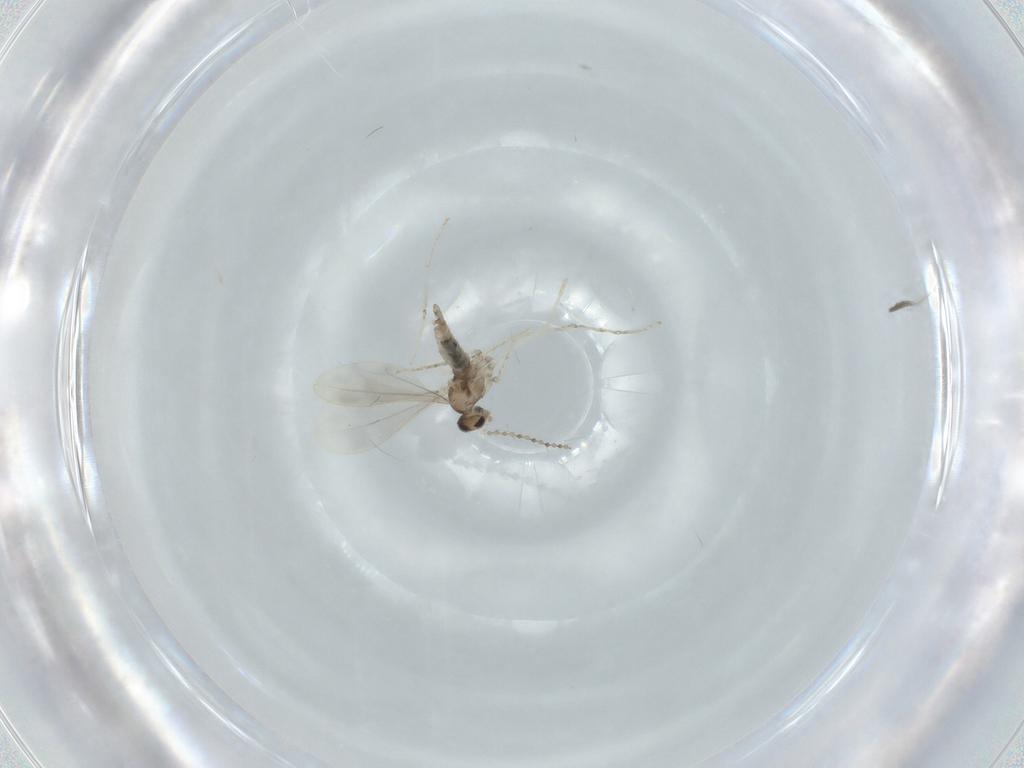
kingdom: Animalia
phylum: Arthropoda
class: Insecta
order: Diptera
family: Cecidomyiidae
